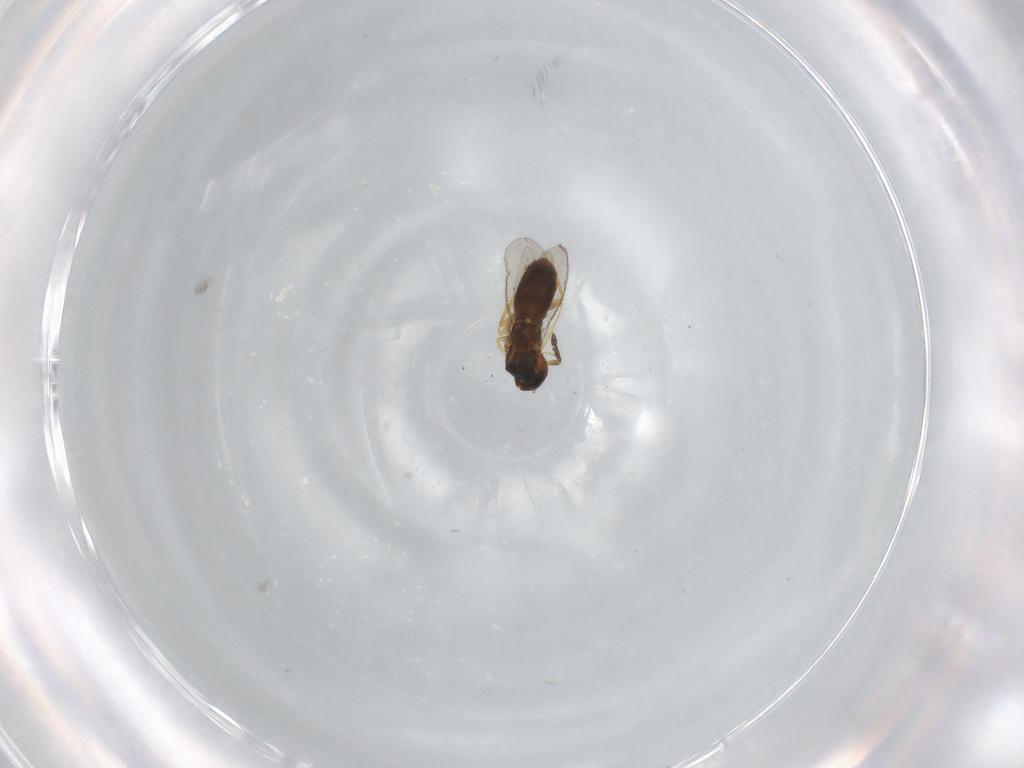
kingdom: Animalia
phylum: Arthropoda
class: Insecta
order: Hymenoptera
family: Eulophidae
